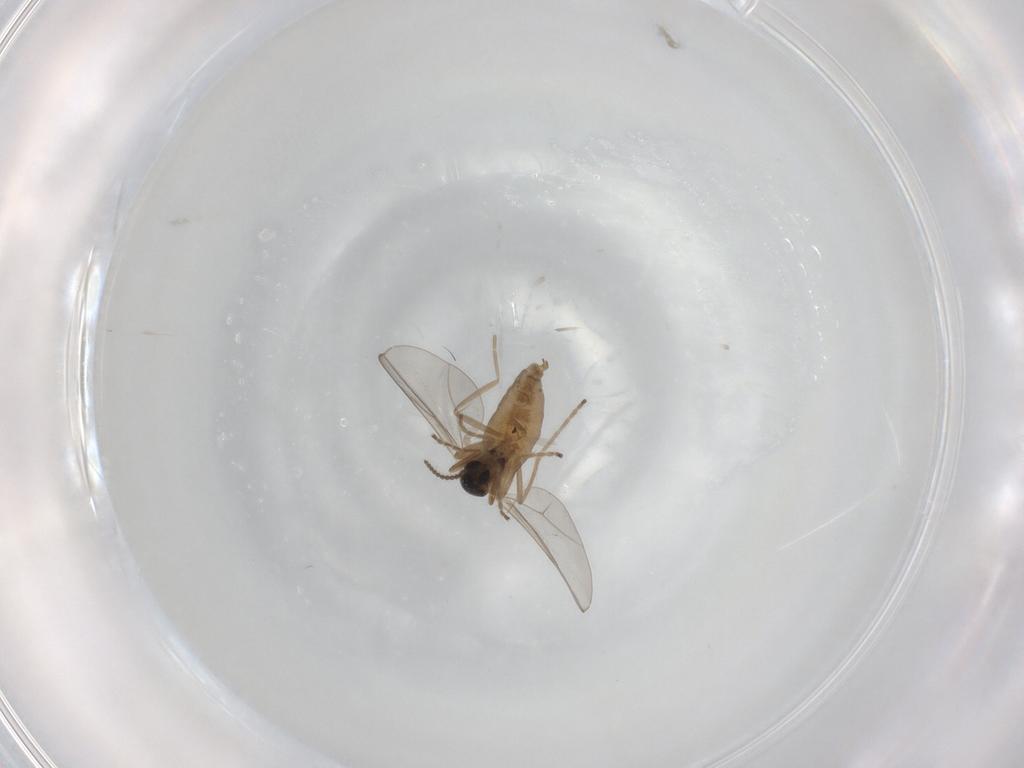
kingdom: Animalia
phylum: Arthropoda
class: Insecta
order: Diptera
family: Cecidomyiidae
